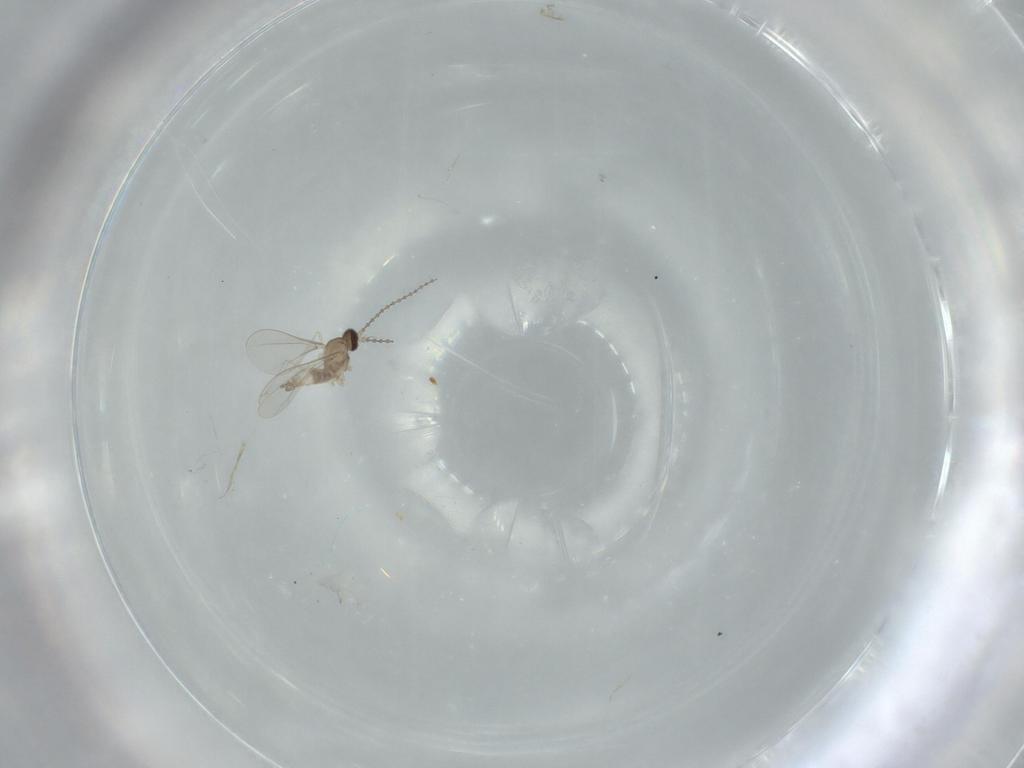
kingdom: Animalia
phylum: Arthropoda
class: Insecta
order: Diptera
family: Cecidomyiidae
